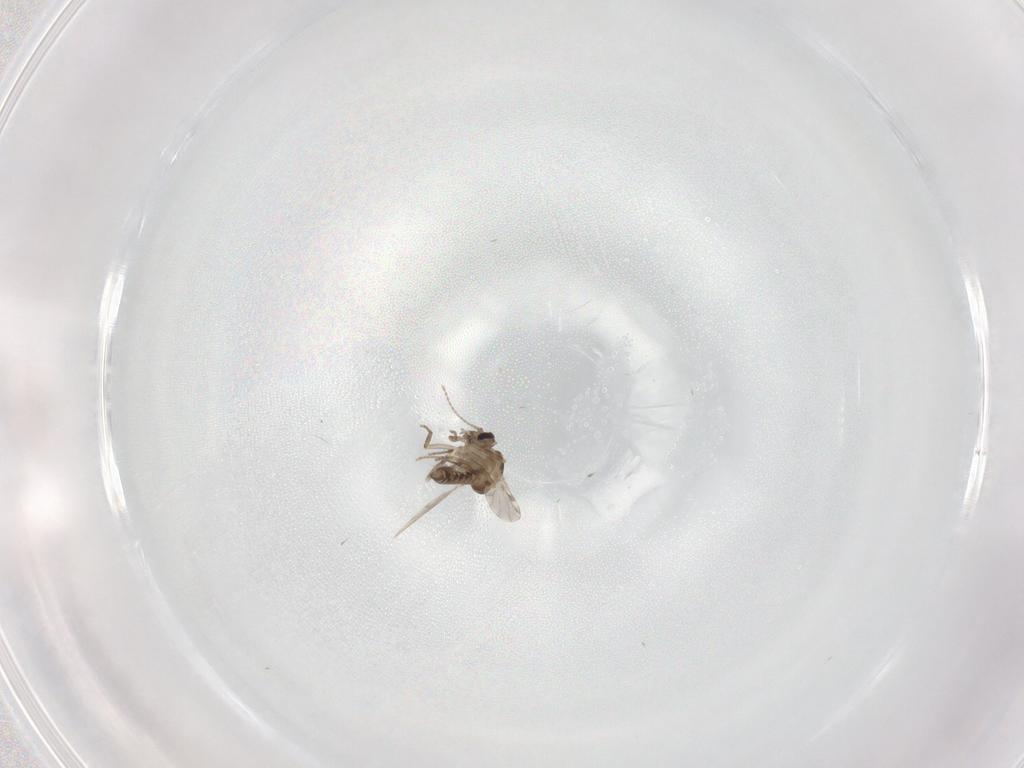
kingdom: Animalia
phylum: Arthropoda
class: Insecta
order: Diptera
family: Ceratopogonidae
